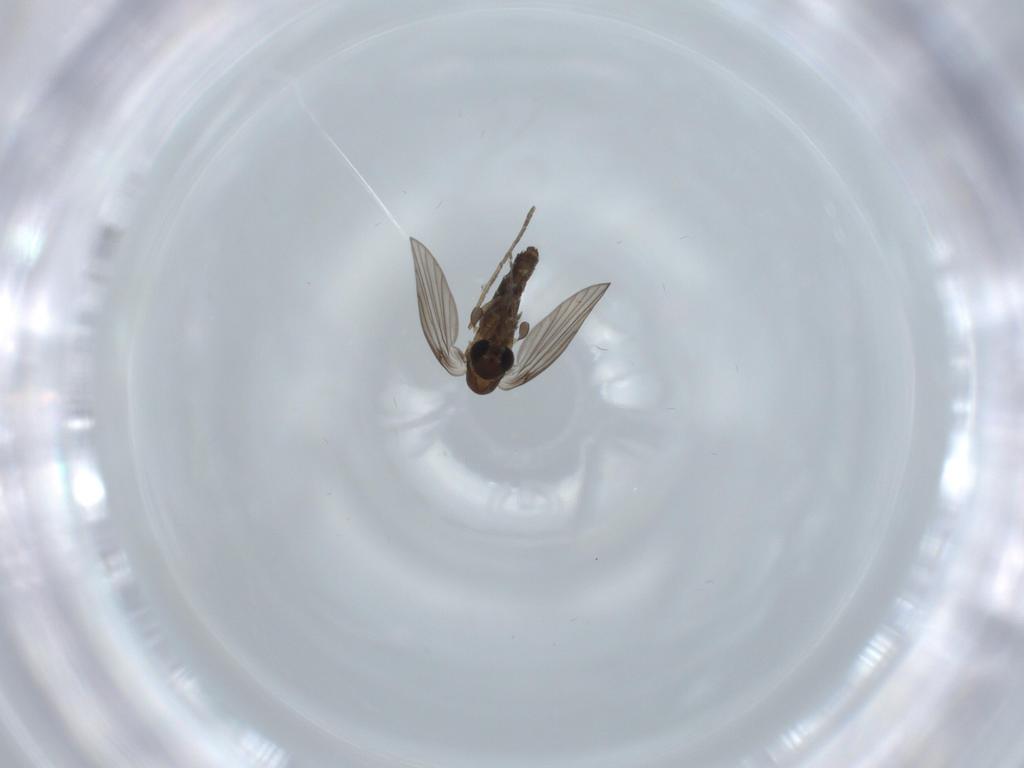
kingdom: Animalia
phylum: Arthropoda
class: Insecta
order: Diptera
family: Psychodidae
